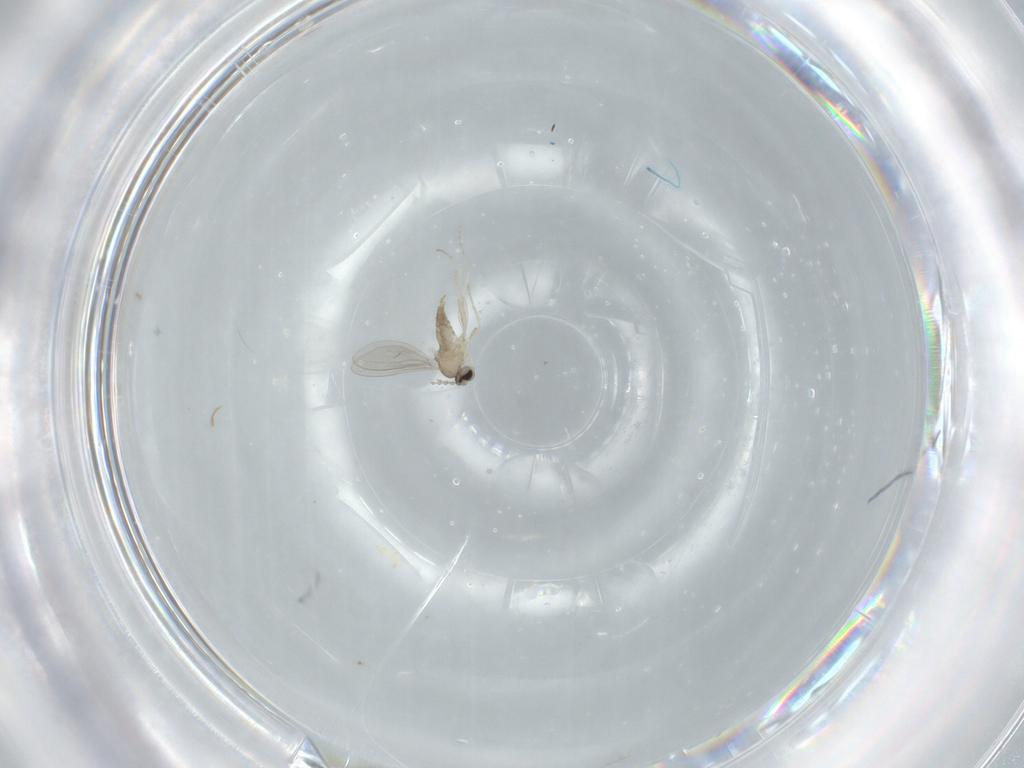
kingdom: Animalia
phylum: Arthropoda
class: Insecta
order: Diptera
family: Cecidomyiidae
